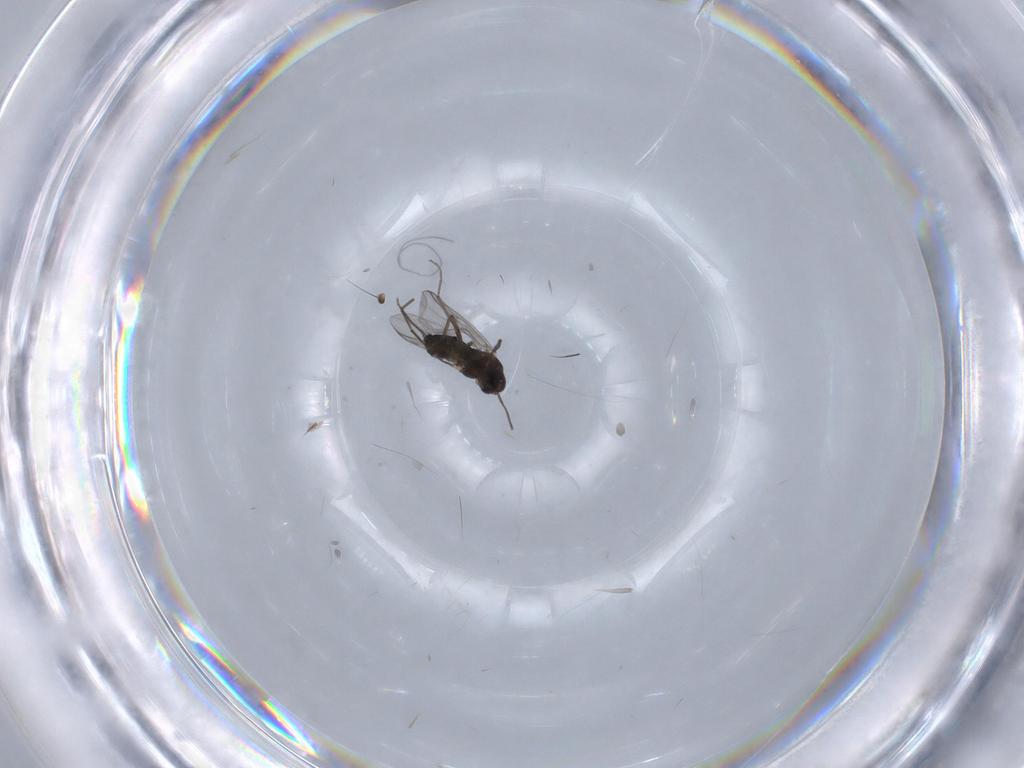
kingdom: Animalia
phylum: Arthropoda
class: Insecta
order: Diptera
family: Chironomidae
